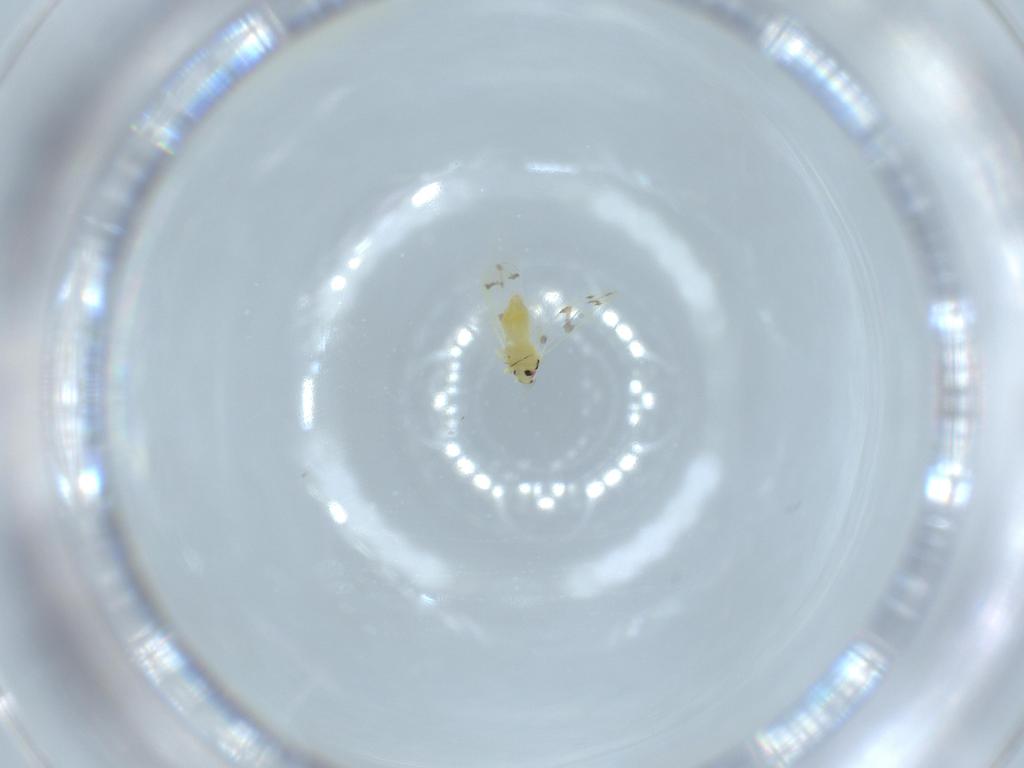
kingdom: Animalia
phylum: Arthropoda
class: Insecta
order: Hemiptera
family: Aleyrodidae
